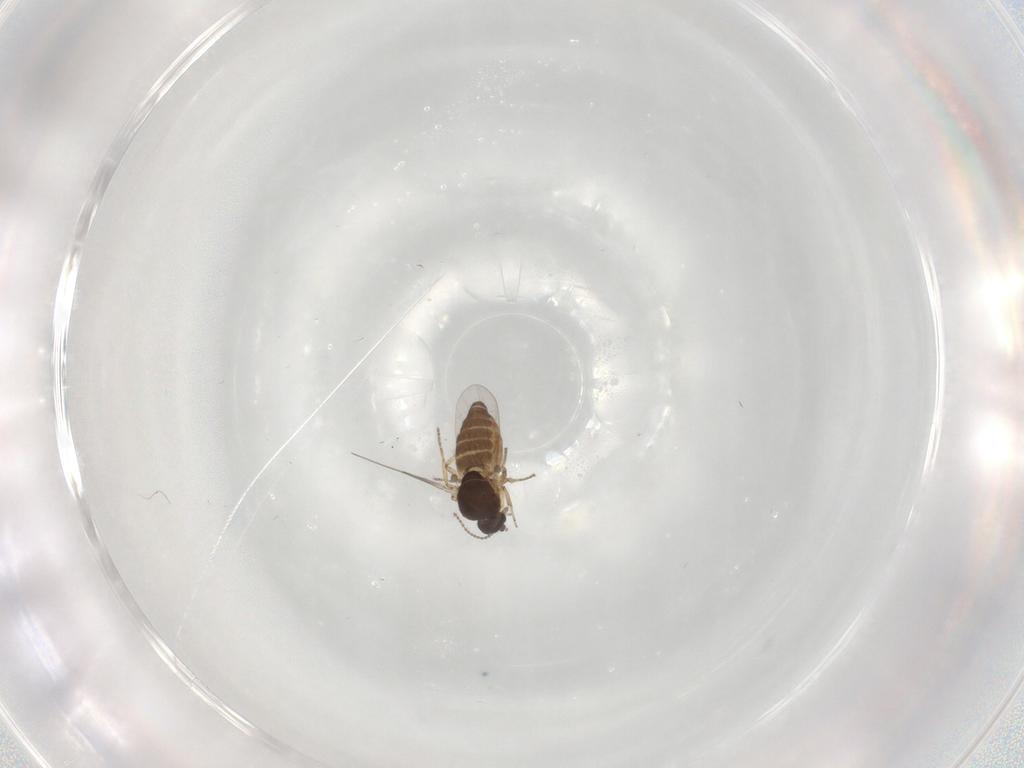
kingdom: Animalia
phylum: Arthropoda
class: Insecta
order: Diptera
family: Ceratopogonidae
